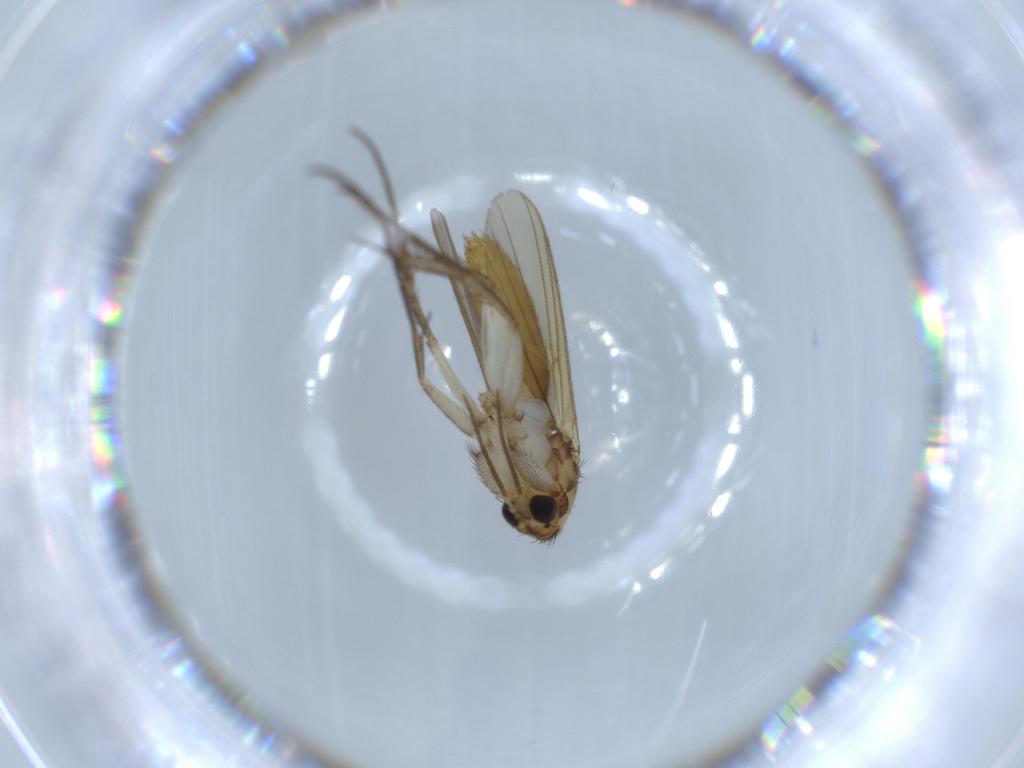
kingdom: Animalia
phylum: Arthropoda
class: Insecta
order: Diptera
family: Mycetophilidae
